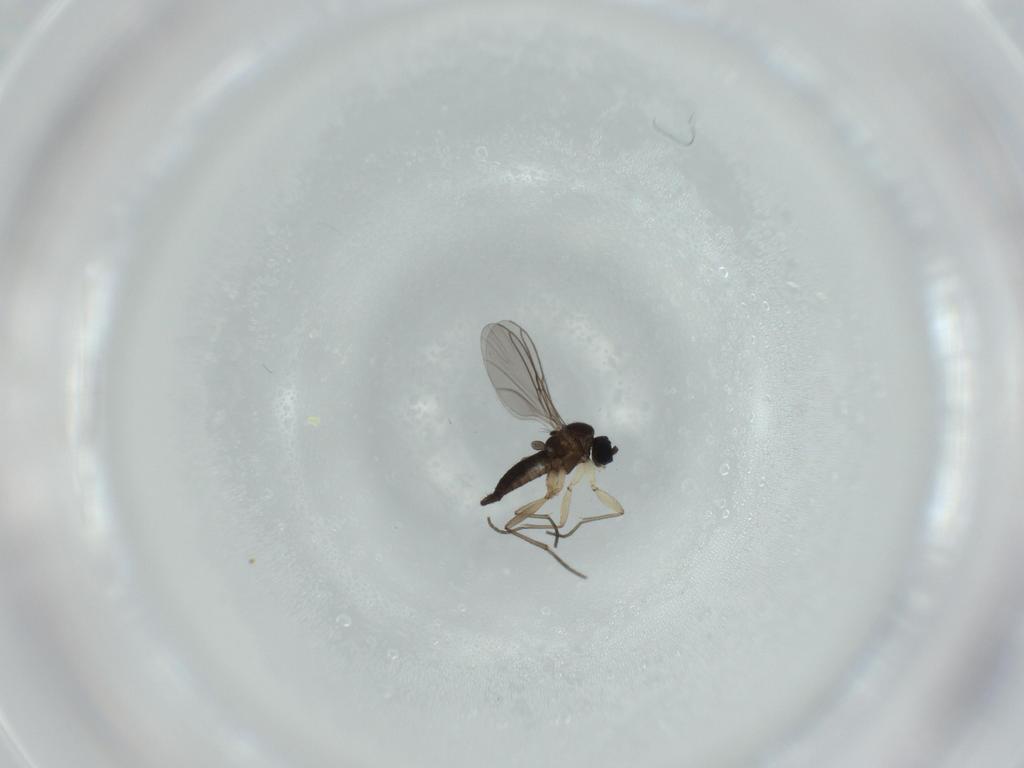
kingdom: Animalia
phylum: Arthropoda
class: Insecta
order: Diptera
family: Sciaridae
